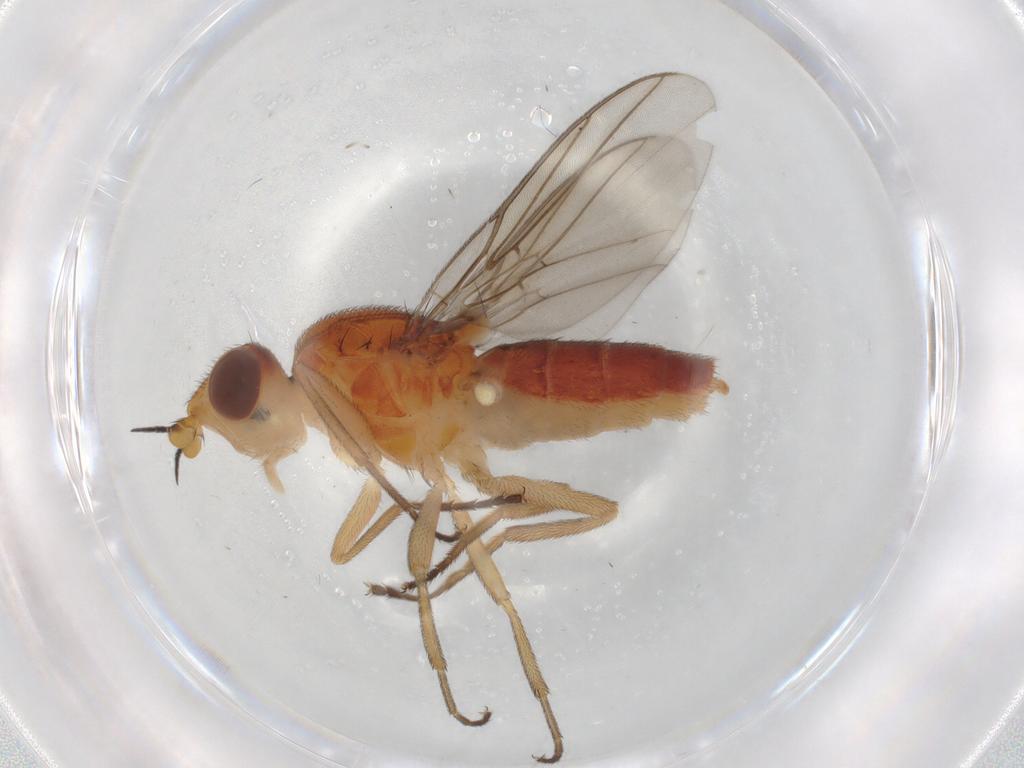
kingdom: Animalia
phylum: Arthropoda
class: Insecta
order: Diptera
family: Chloropidae
